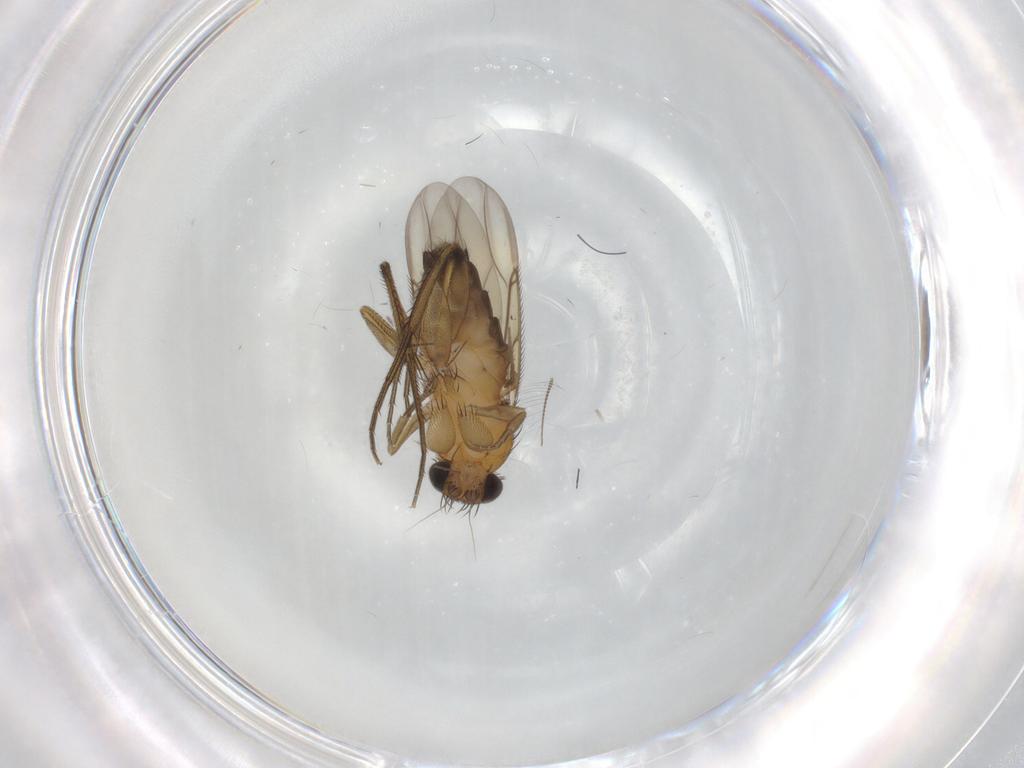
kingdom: Animalia
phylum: Arthropoda
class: Insecta
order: Diptera
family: Phoridae
